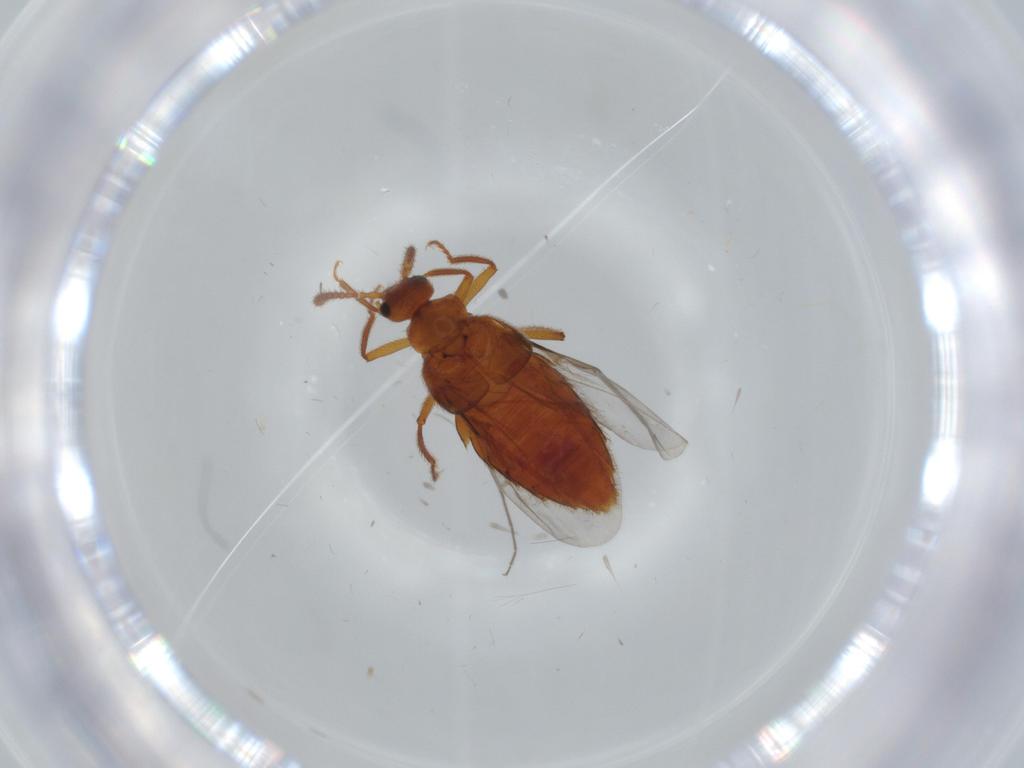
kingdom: Animalia
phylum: Arthropoda
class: Insecta
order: Coleoptera
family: Staphylinidae
